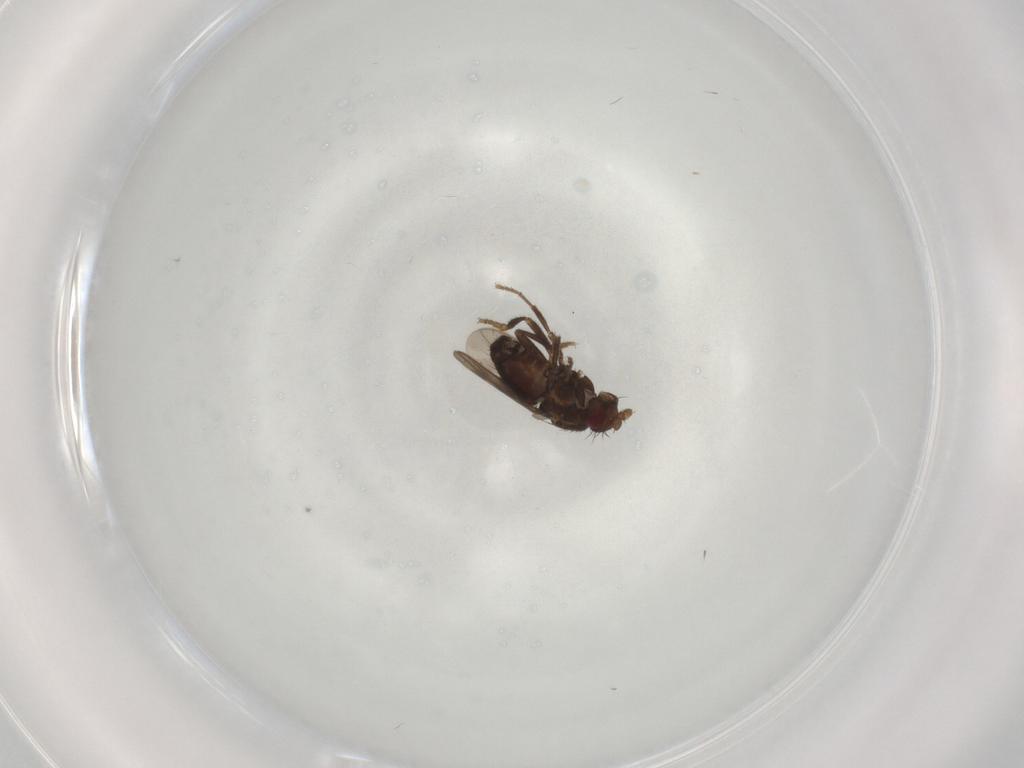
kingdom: Animalia
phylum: Arthropoda
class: Insecta
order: Diptera
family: Sphaeroceridae
